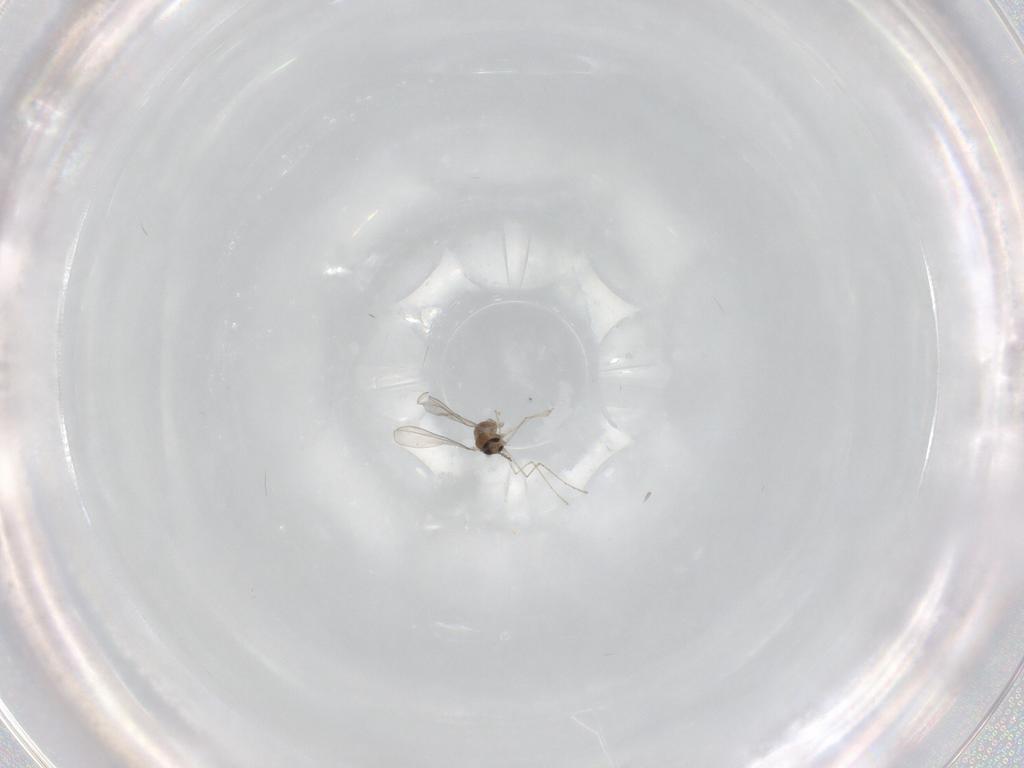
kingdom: Animalia
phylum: Arthropoda
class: Insecta
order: Diptera
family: Cecidomyiidae
